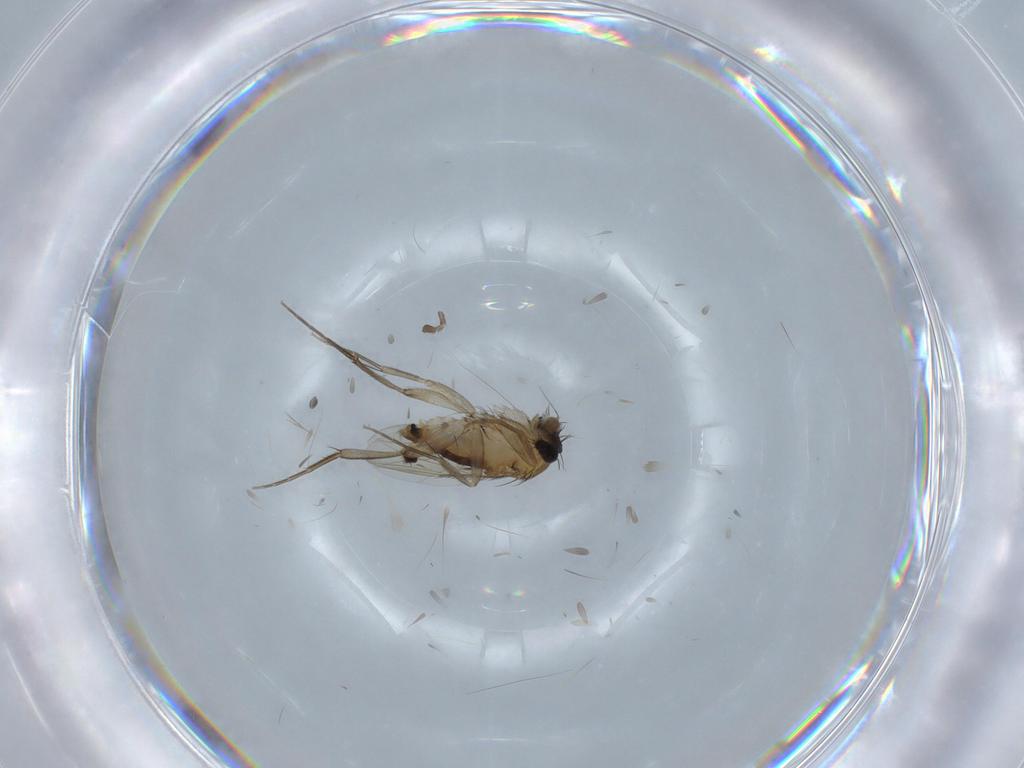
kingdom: Animalia
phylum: Arthropoda
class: Insecta
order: Diptera
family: Phoridae
